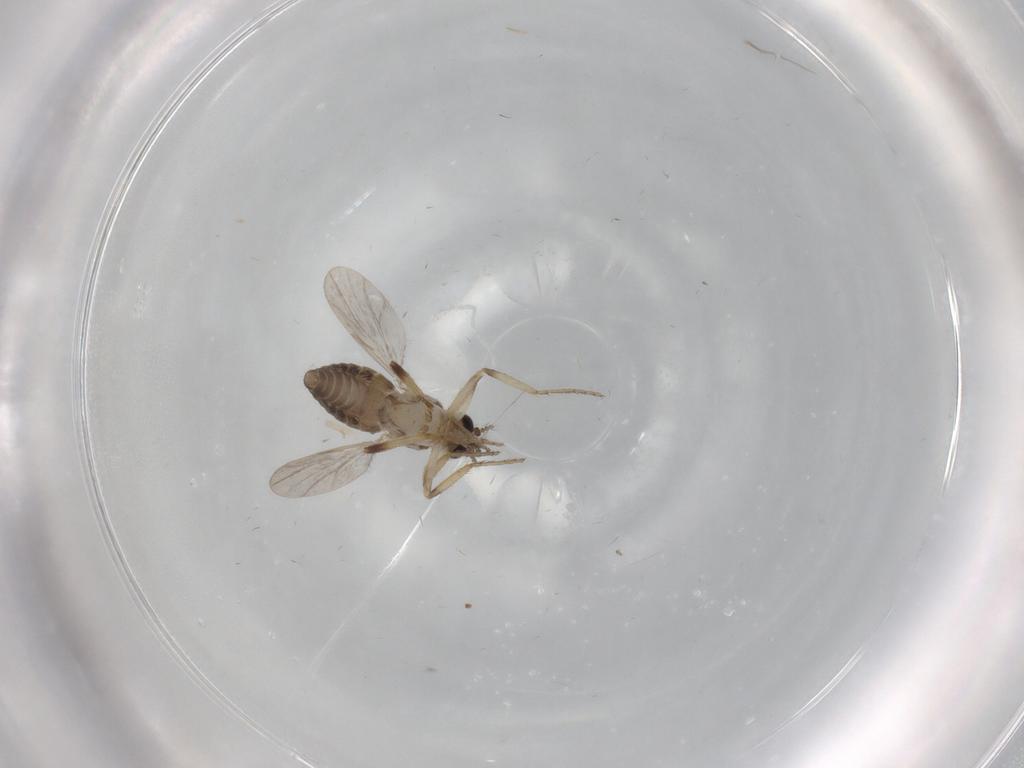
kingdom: Animalia
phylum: Arthropoda
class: Insecta
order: Diptera
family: Ceratopogonidae
